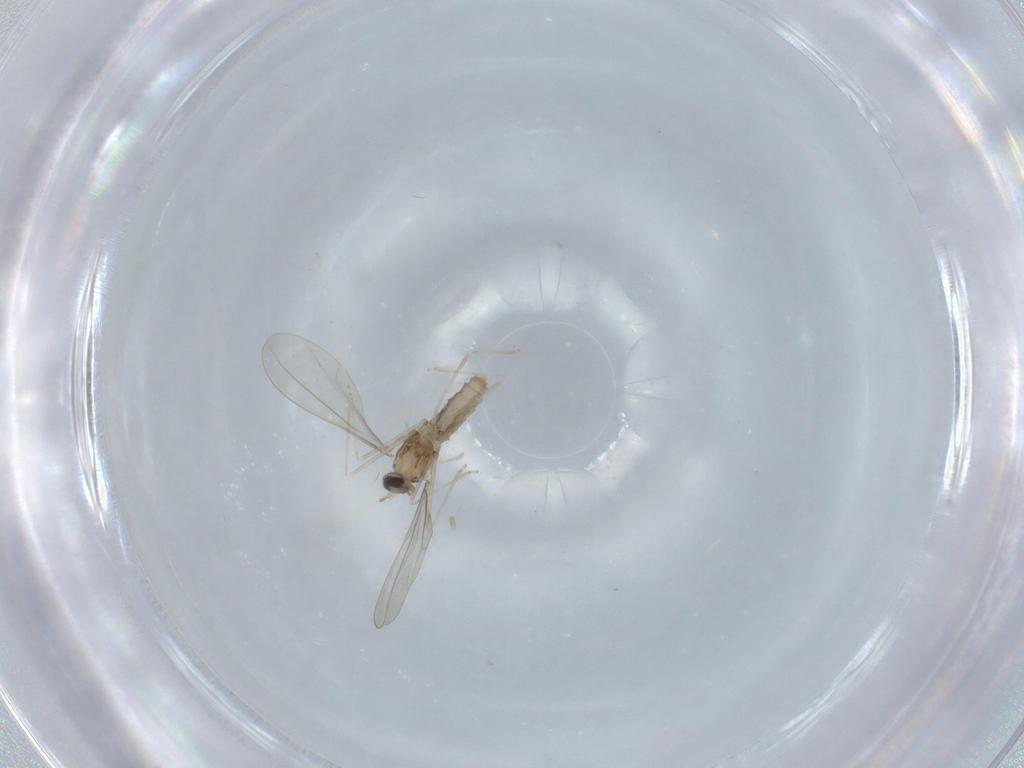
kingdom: Animalia
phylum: Arthropoda
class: Insecta
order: Diptera
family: Cecidomyiidae
